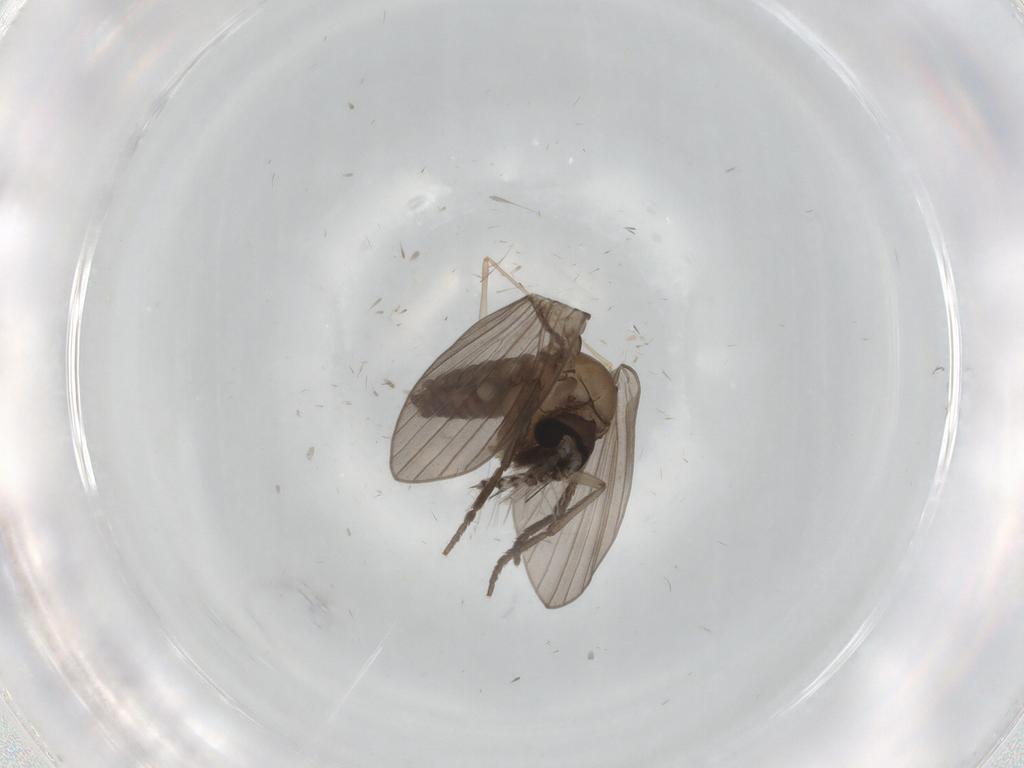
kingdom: Animalia
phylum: Arthropoda
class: Insecta
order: Diptera
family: Psychodidae
